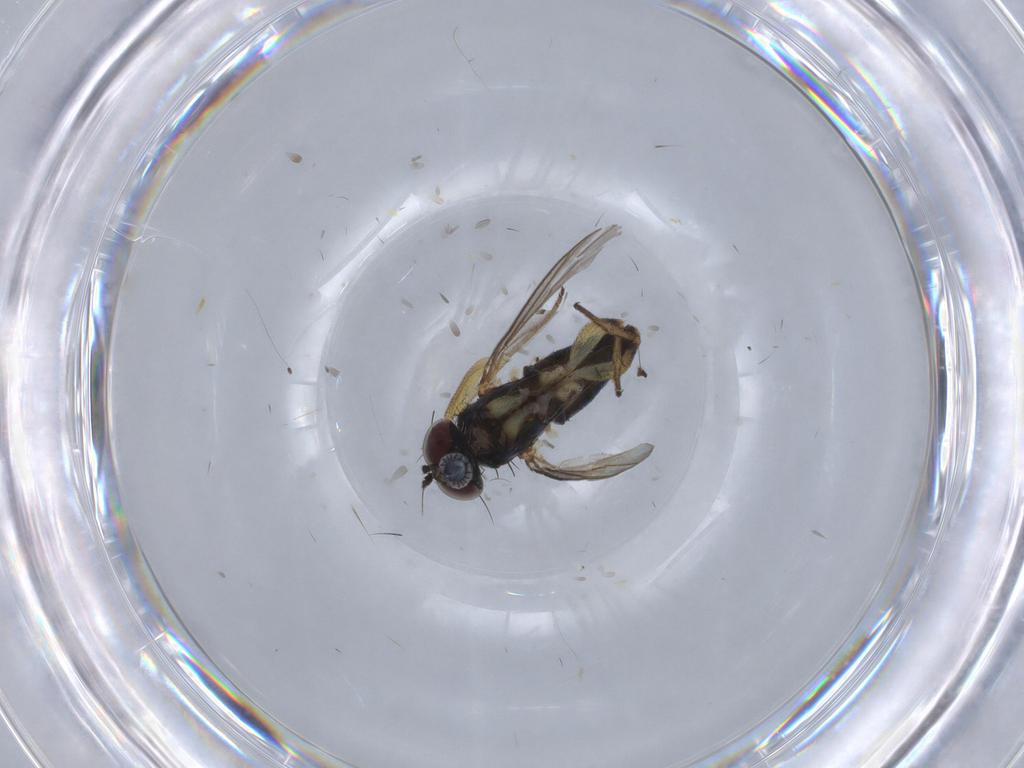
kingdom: Animalia
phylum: Arthropoda
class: Insecta
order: Diptera
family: Dolichopodidae
